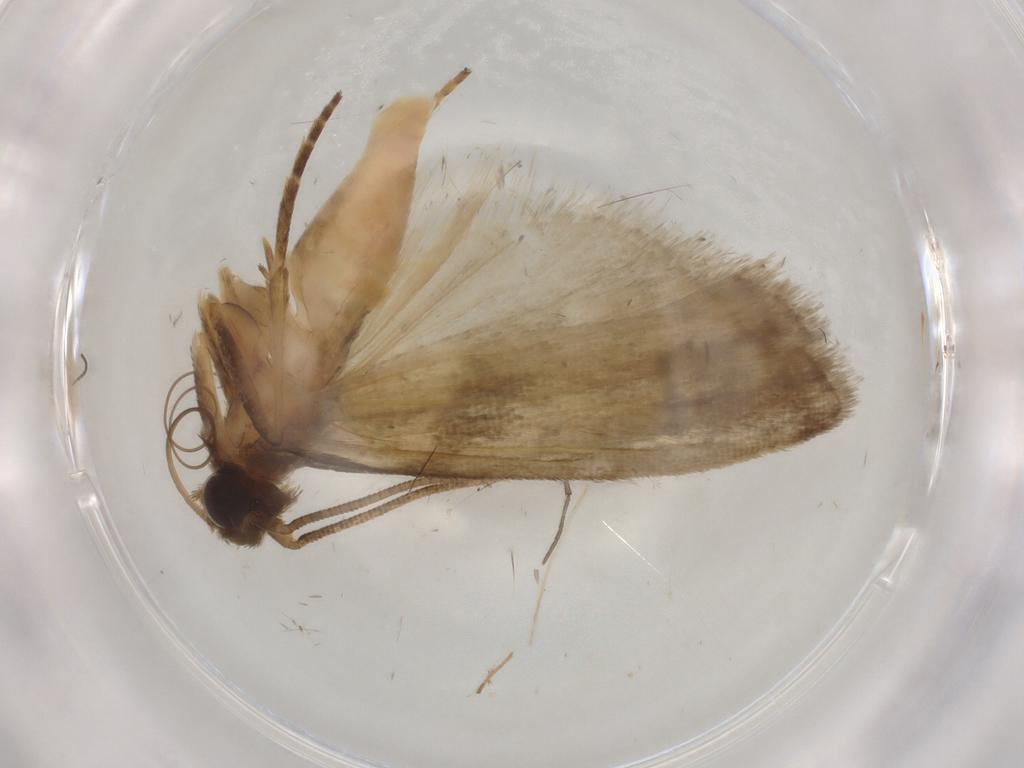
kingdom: Animalia
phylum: Arthropoda
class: Insecta
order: Lepidoptera
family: Noctuidae
